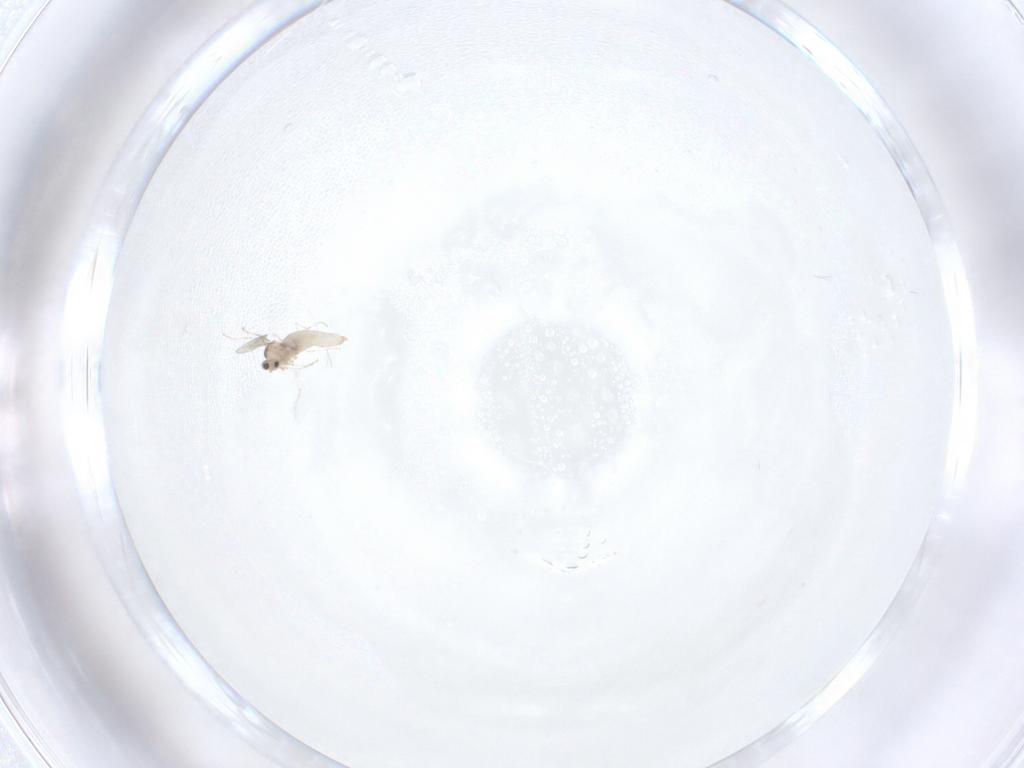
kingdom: Animalia
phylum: Arthropoda
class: Insecta
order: Diptera
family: Cecidomyiidae
